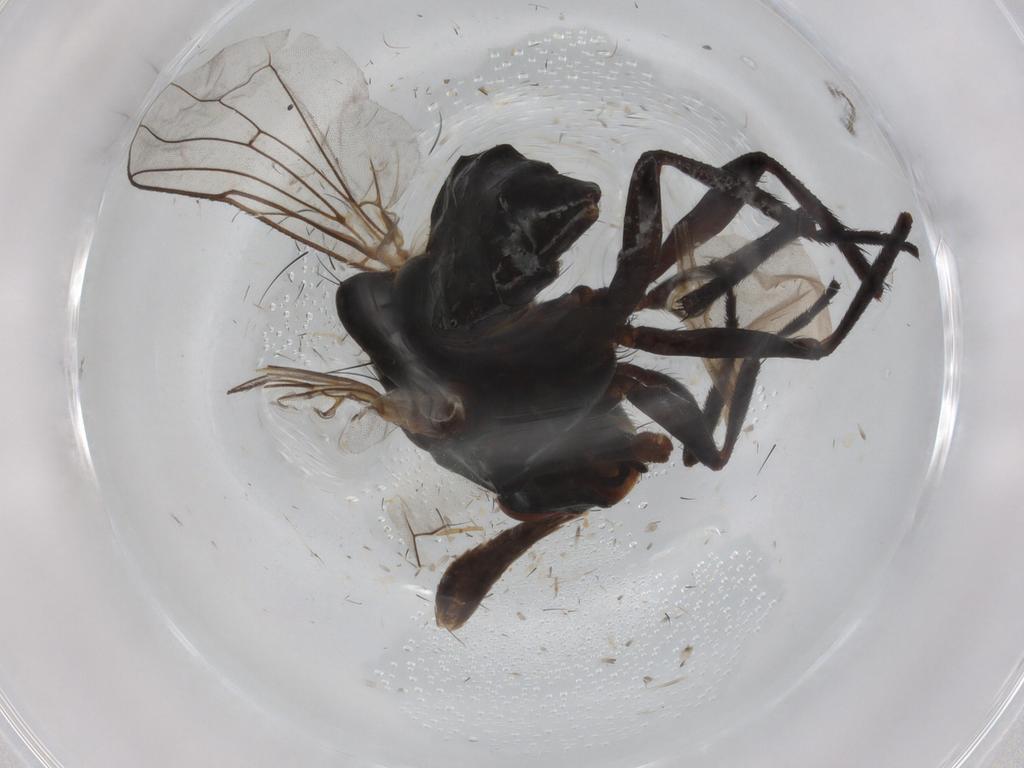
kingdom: Animalia
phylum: Arthropoda
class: Insecta
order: Diptera
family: Glossinidae
